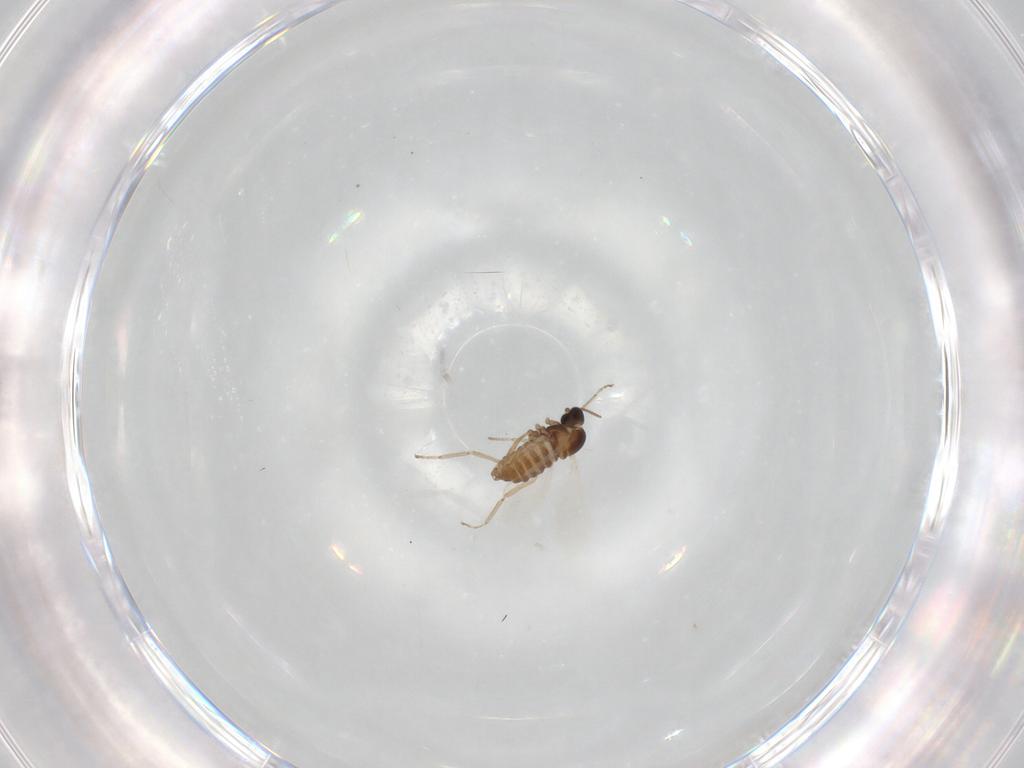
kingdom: Animalia
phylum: Arthropoda
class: Insecta
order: Diptera
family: Cecidomyiidae
